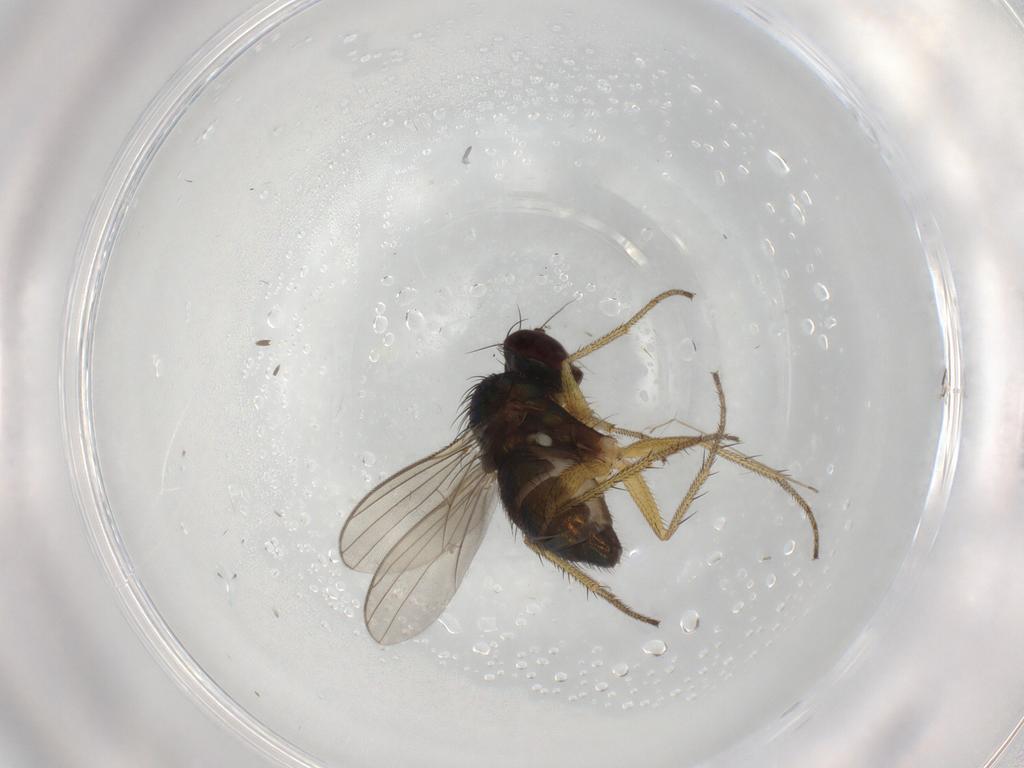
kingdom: Animalia
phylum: Arthropoda
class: Insecta
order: Diptera
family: Chironomidae
